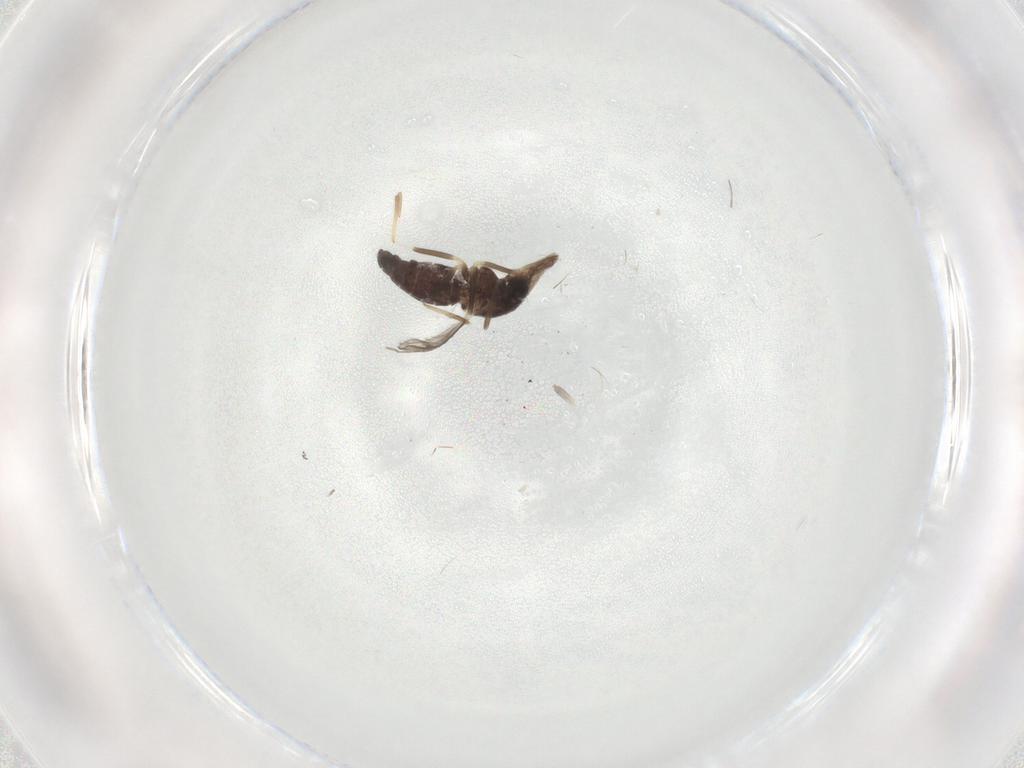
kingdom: Animalia
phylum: Arthropoda
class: Insecta
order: Diptera
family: Chironomidae
